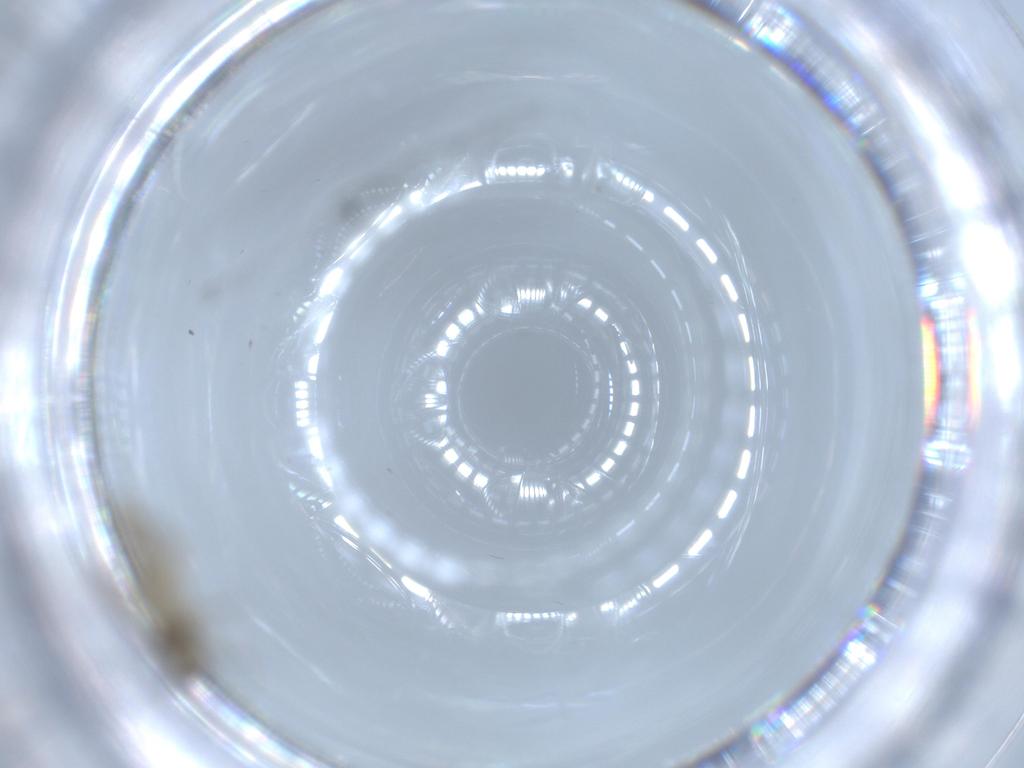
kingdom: Animalia
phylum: Arthropoda
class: Insecta
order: Diptera
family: Chironomidae
